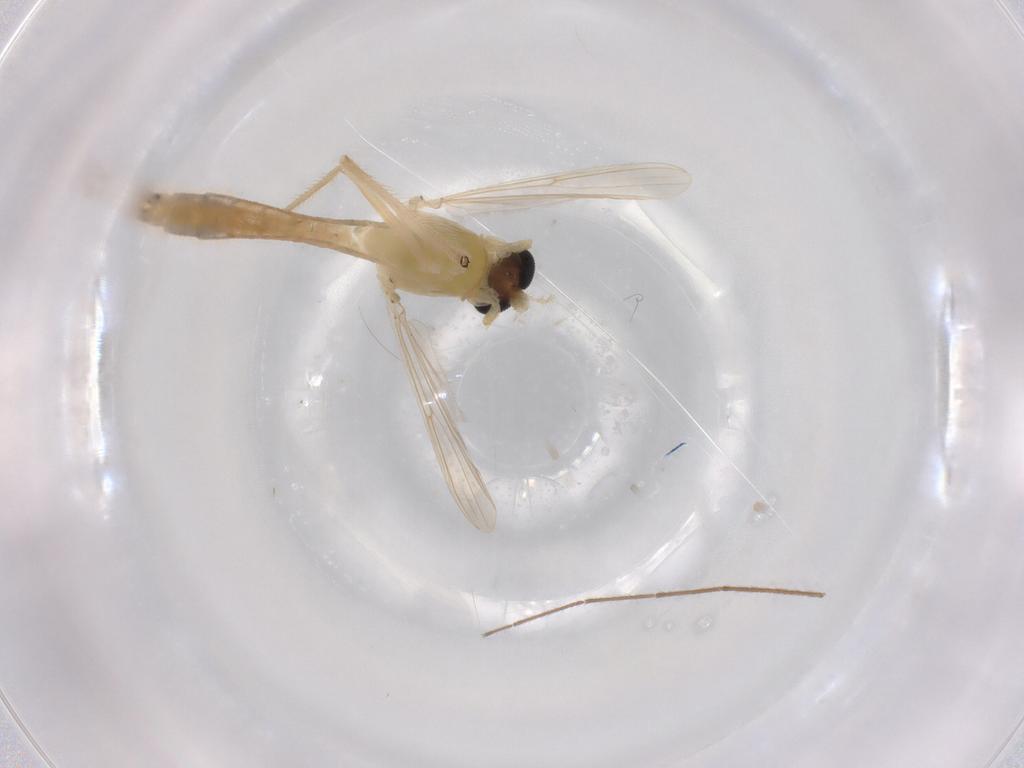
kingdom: Animalia
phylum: Arthropoda
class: Insecta
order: Diptera
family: Chironomidae
